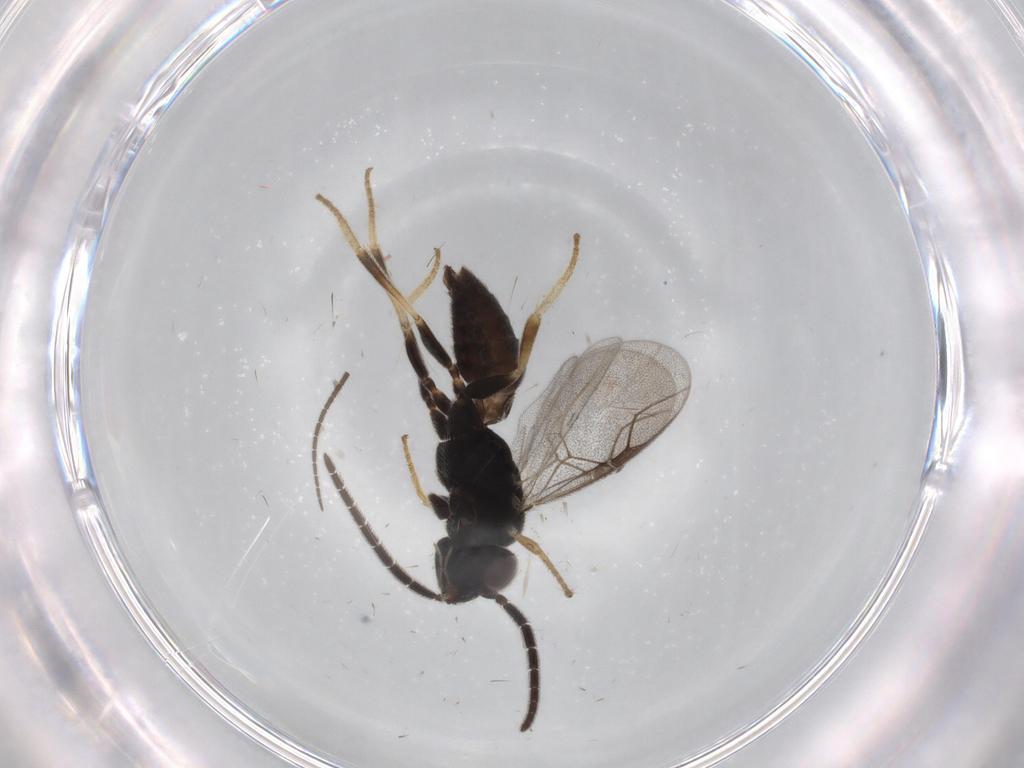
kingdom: Animalia
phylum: Arthropoda
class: Insecta
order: Hymenoptera
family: Dryinidae
